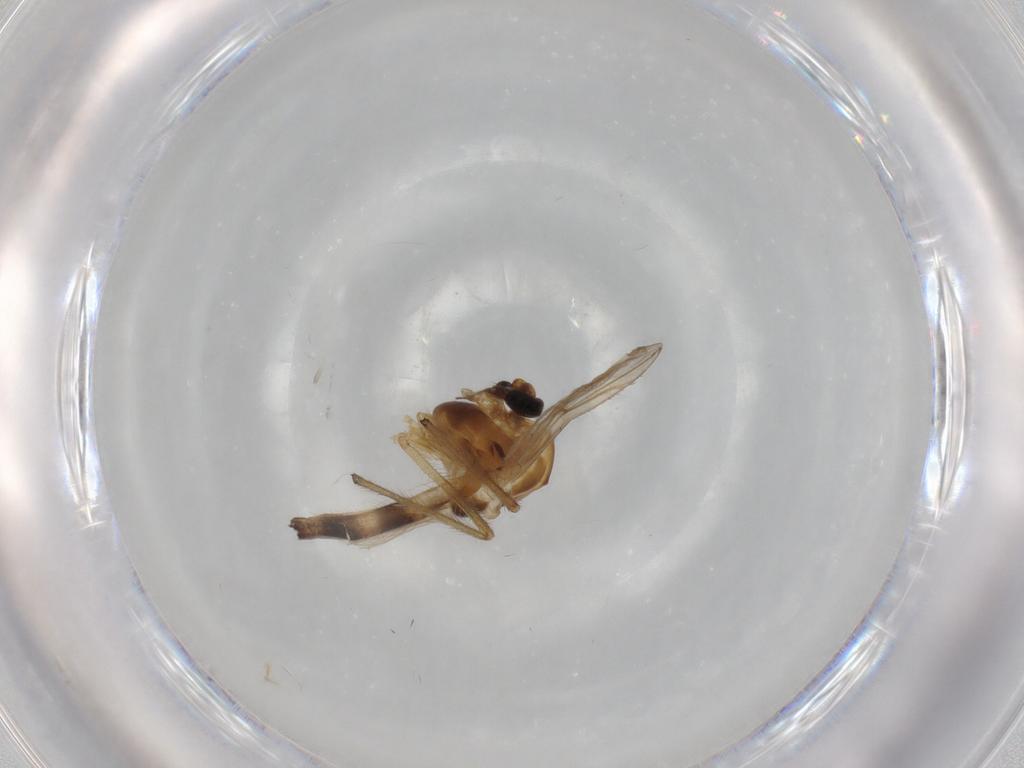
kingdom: Animalia
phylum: Arthropoda
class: Insecta
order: Diptera
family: Chironomidae
